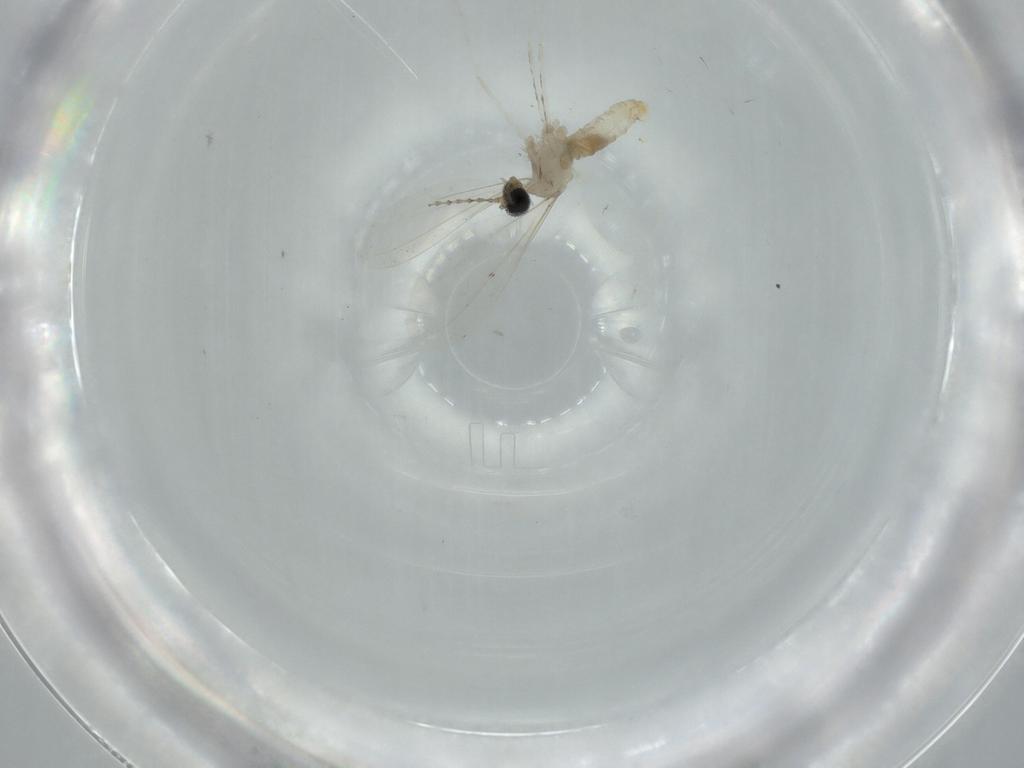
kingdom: Animalia
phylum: Arthropoda
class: Insecta
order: Diptera
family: Cecidomyiidae
